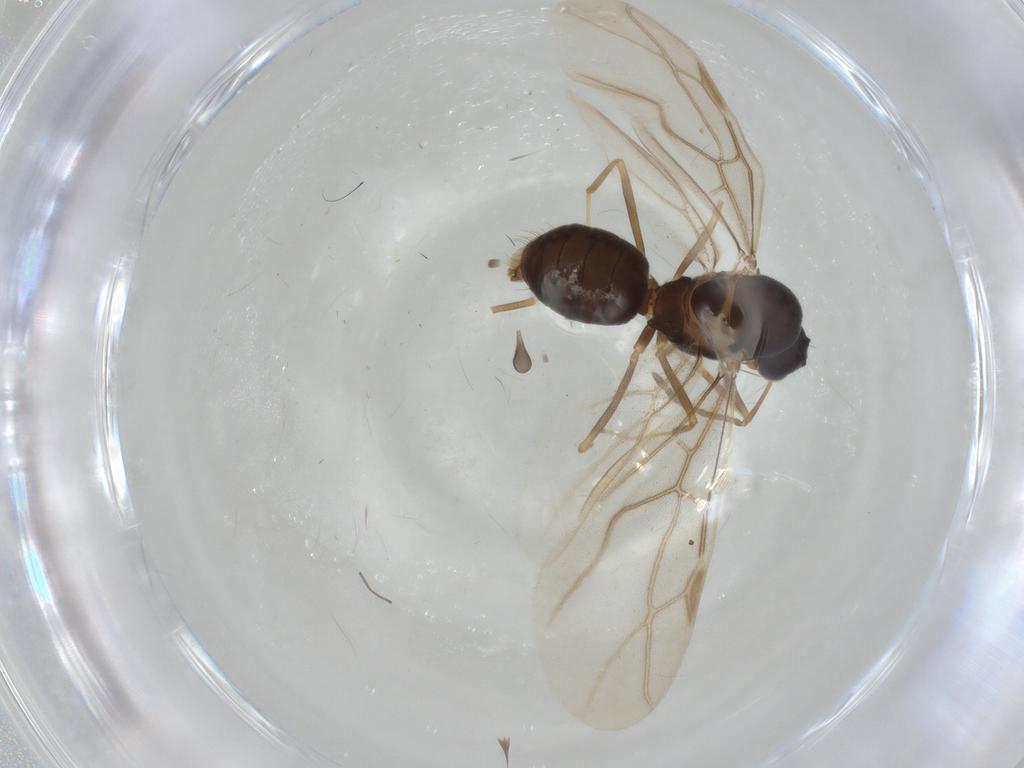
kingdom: Animalia
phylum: Arthropoda
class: Insecta
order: Hymenoptera
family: Formicidae
